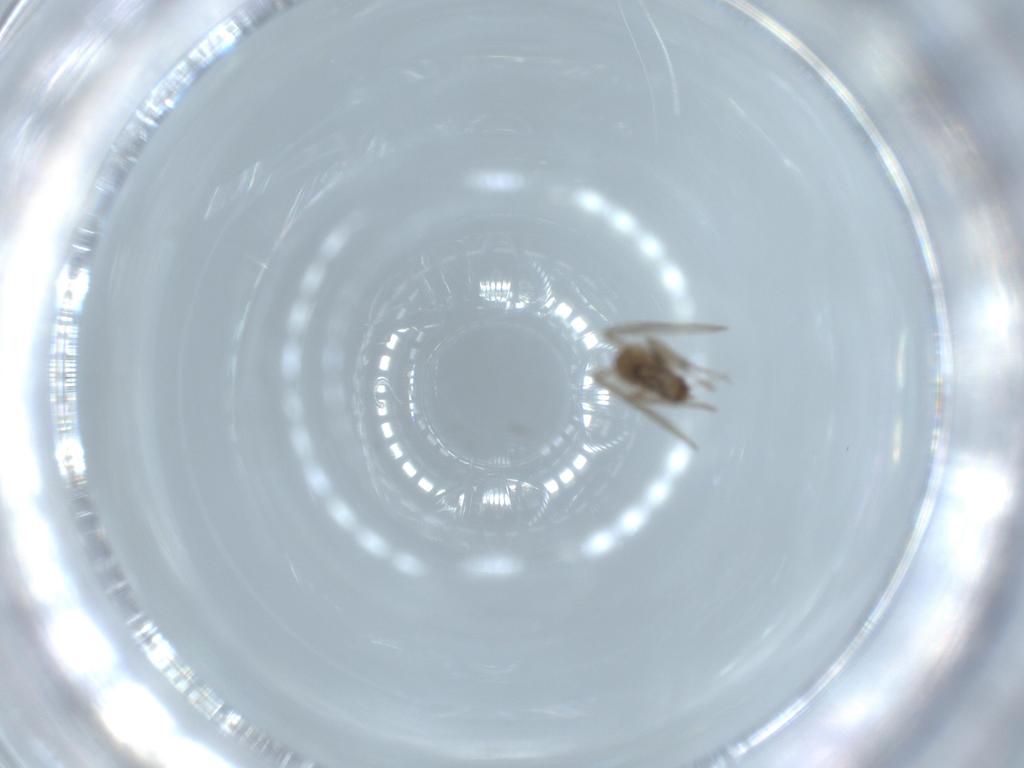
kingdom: Animalia
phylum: Arthropoda
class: Insecta
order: Diptera
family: Psychodidae
